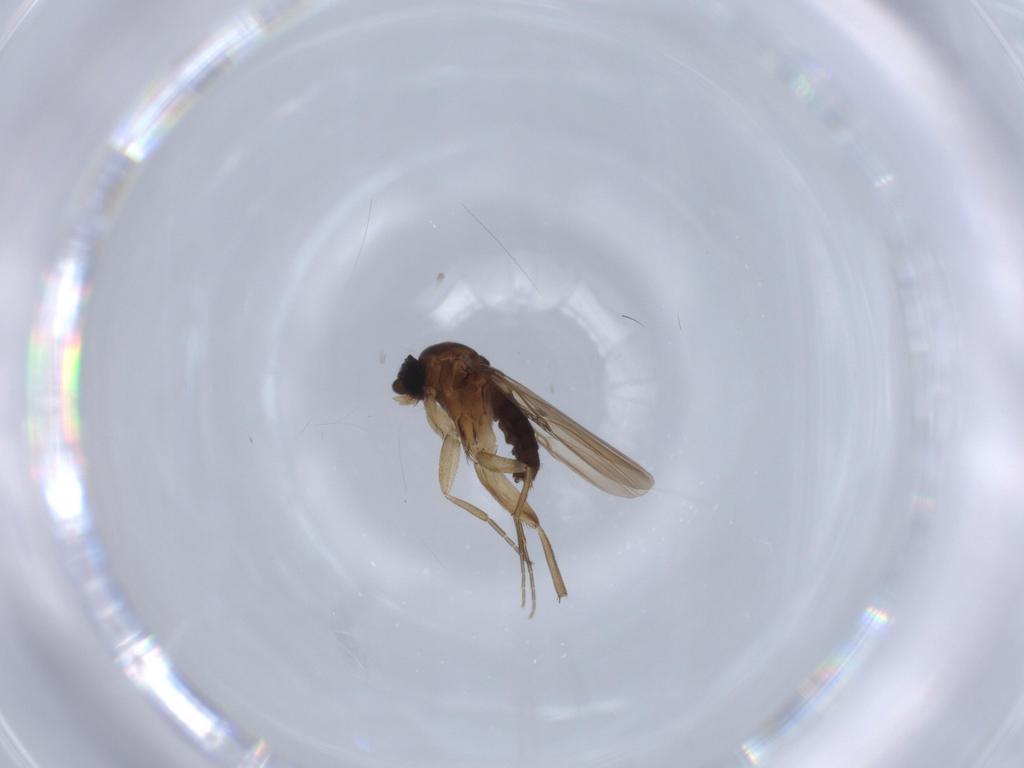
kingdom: Animalia
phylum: Arthropoda
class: Insecta
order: Diptera
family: Phoridae
